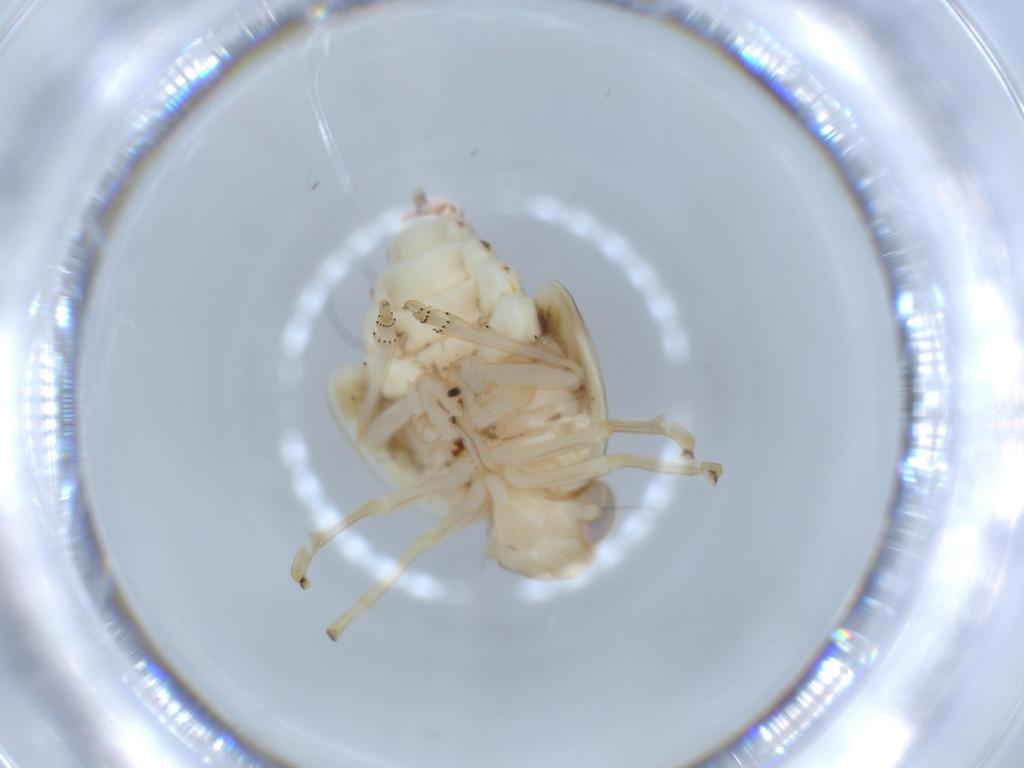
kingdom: Animalia
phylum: Arthropoda
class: Insecta
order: Hemiptera
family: Nogodinidae
